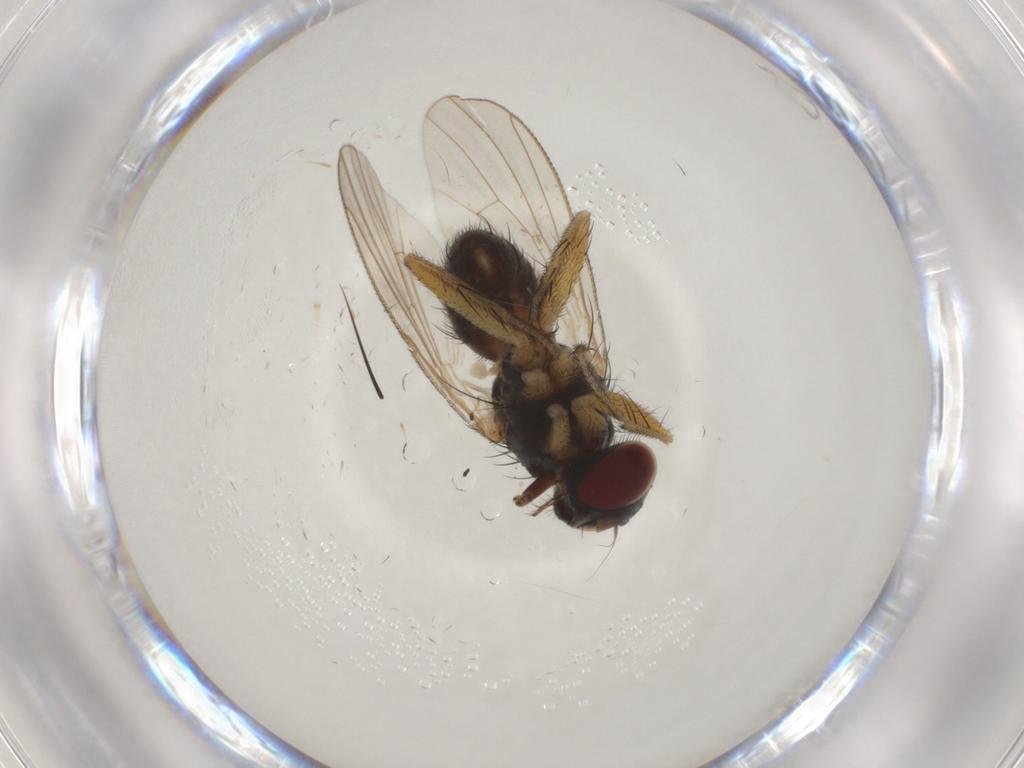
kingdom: Animalia
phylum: Arthropoda
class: Insecta
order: Diptera
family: Muscidae
